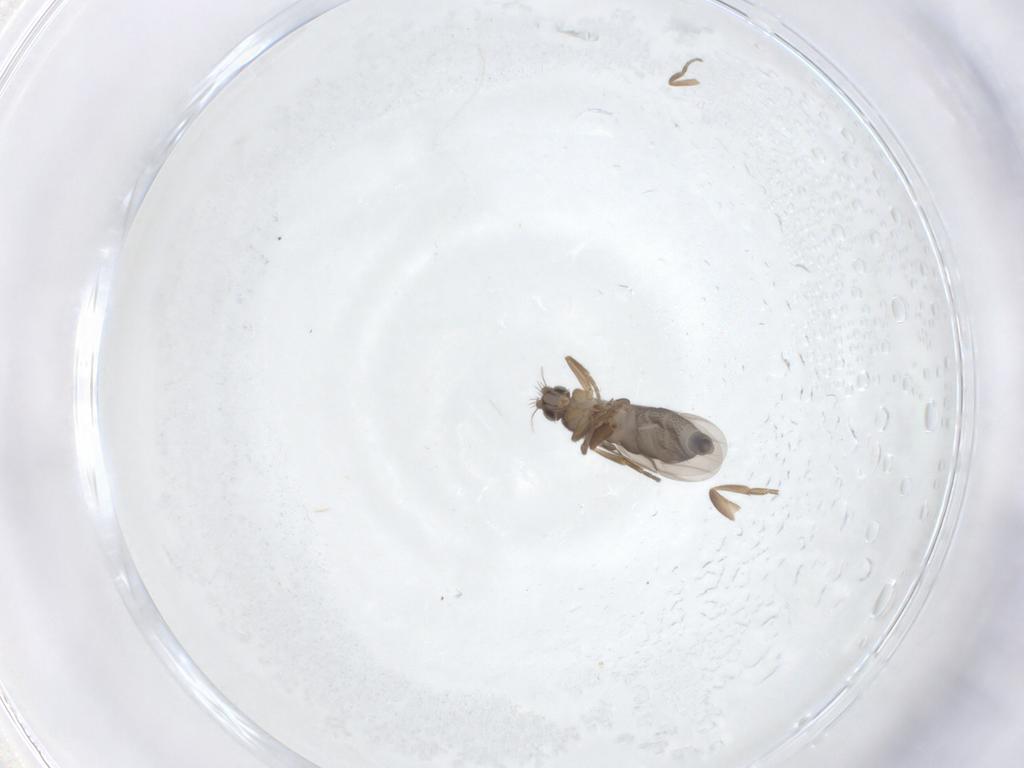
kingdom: Animalia
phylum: Arthropoda
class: Insecta
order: Diptera
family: Phoridae
